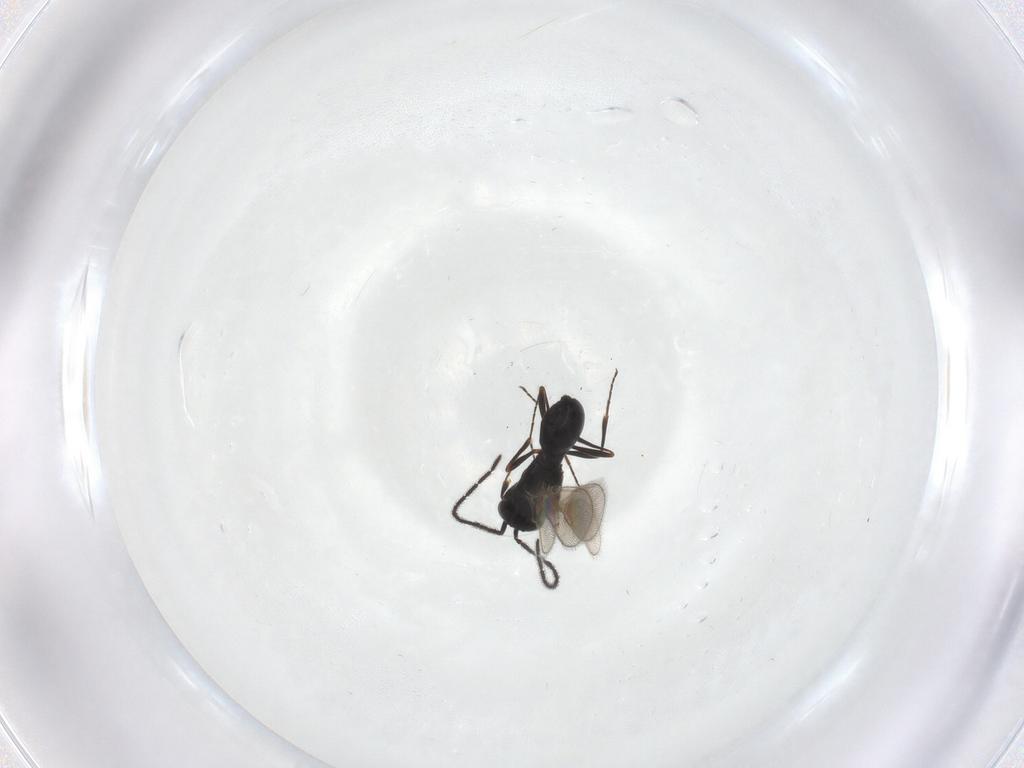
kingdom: Animalia
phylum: Arthropoda
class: Insecta
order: Hymenoptera
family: Scelionidae
